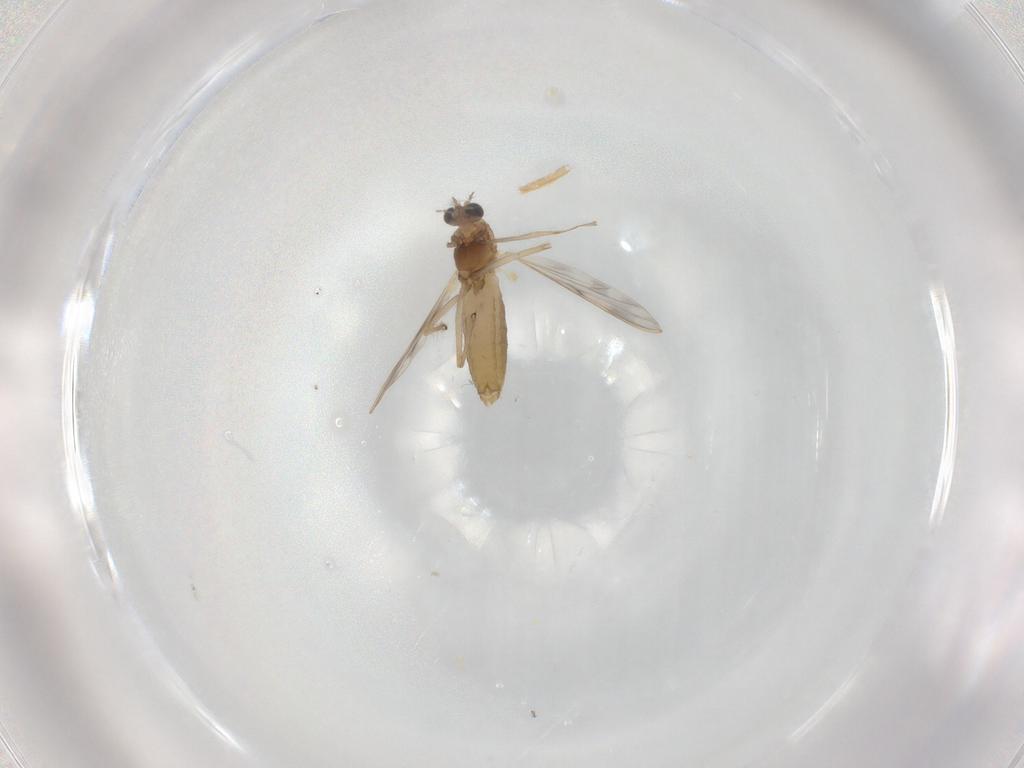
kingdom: Animalia
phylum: Arthropoda
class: Insecta
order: Diptera
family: Chironomidae
